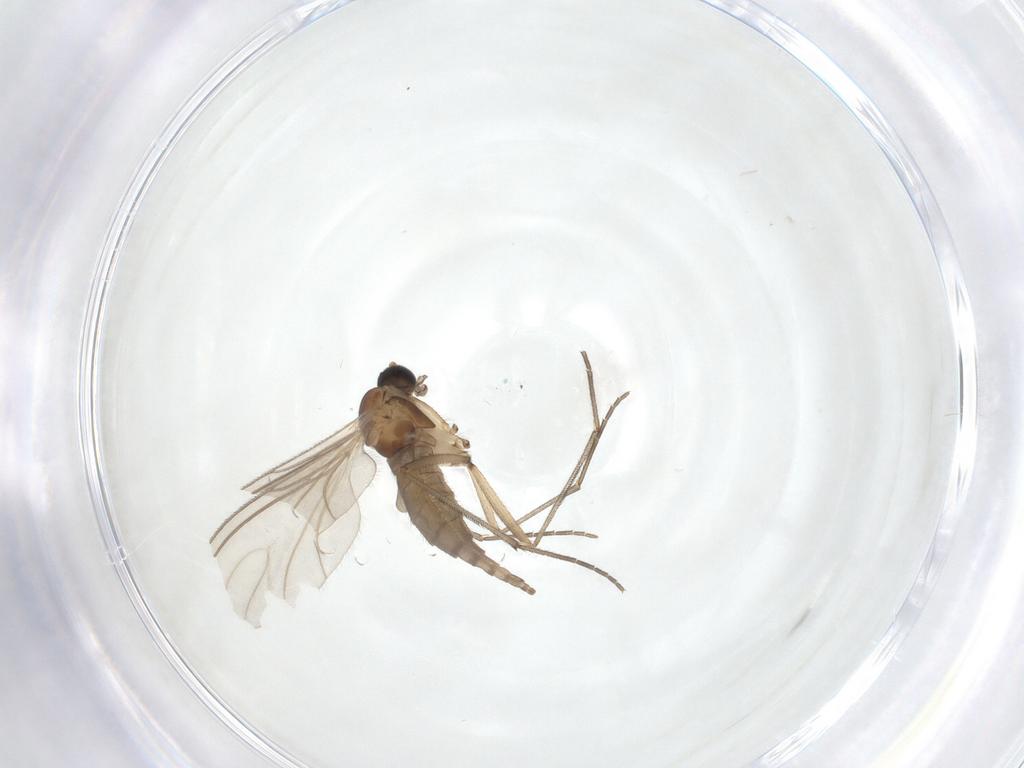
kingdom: Animalia
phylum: Arthropoda
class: Insecta
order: Diptera
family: Sciaridae
